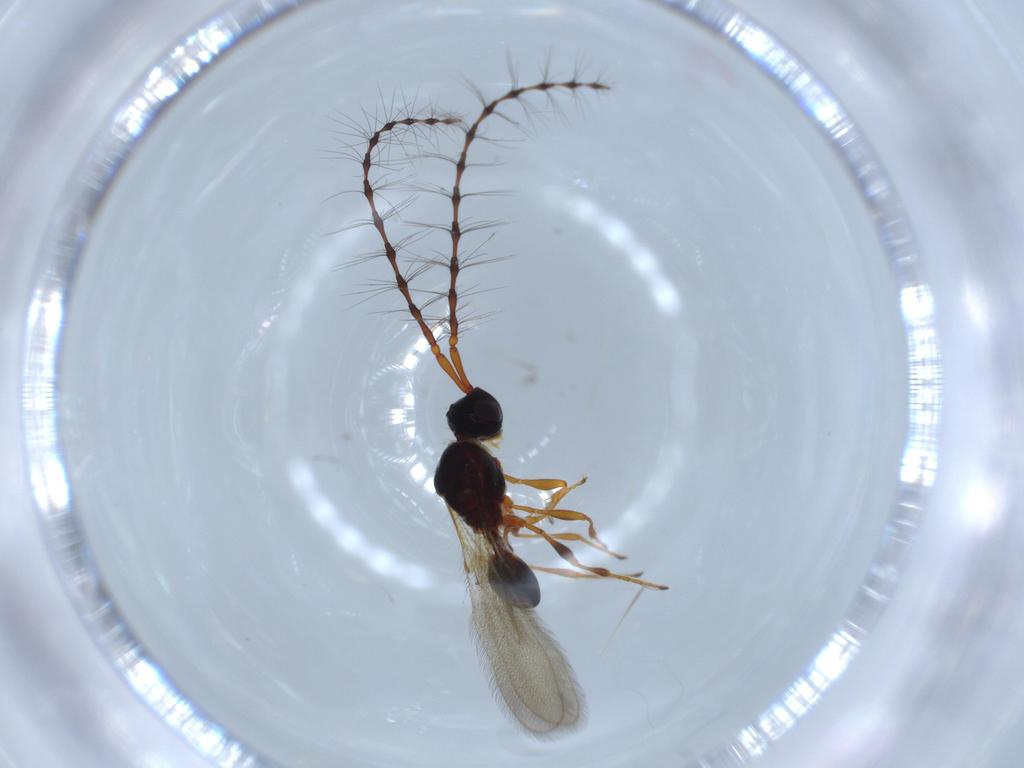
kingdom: Animalia
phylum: Arthropoda
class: Insecta
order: Hymenoptera
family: Diapriidae
